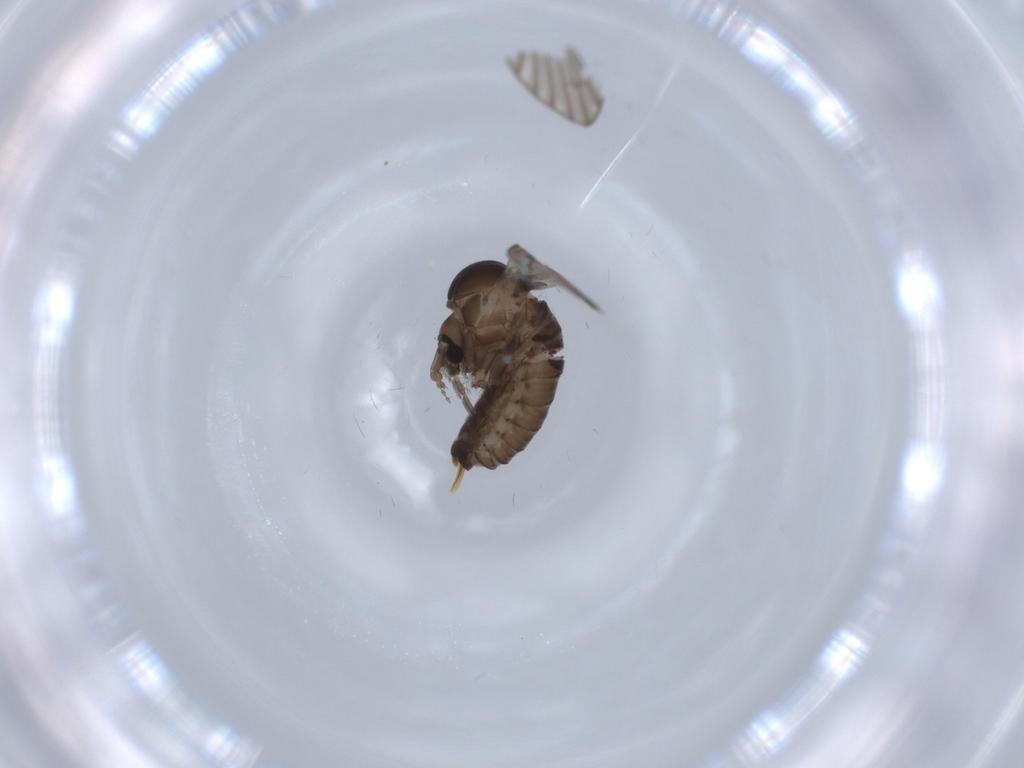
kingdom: Animalia
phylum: Arthropoda
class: Insecta
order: Diptera
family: Psychodidae
